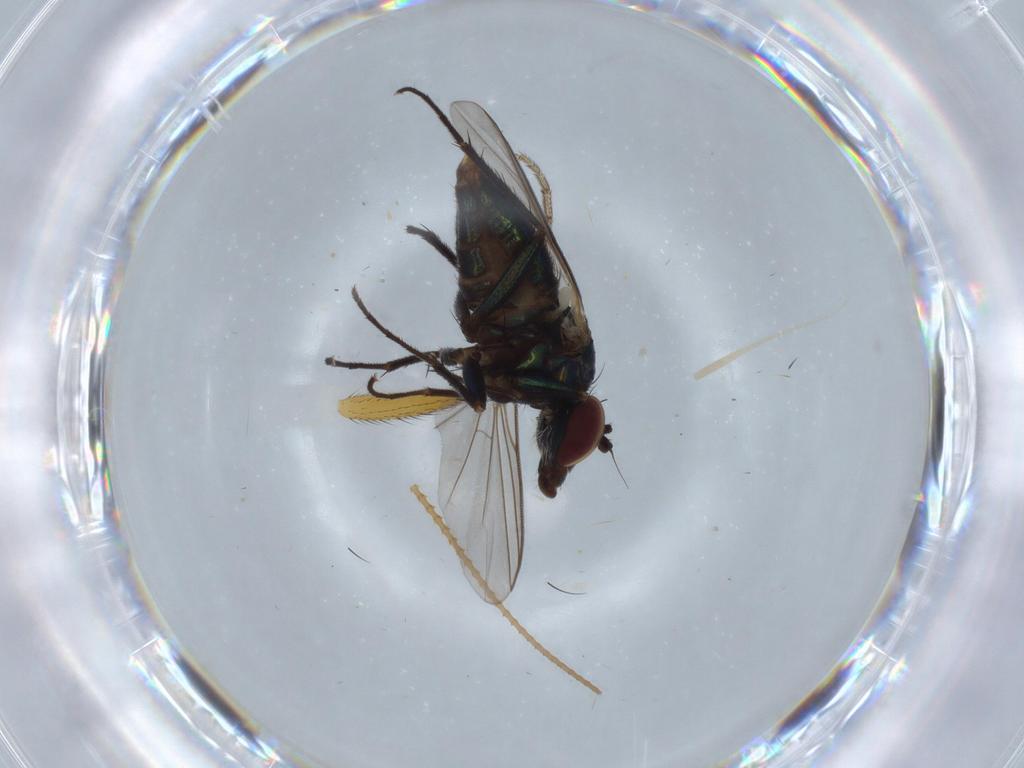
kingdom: Animalia
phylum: Arthropoda
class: Insecta
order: Diptera
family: Dolichopodidae
